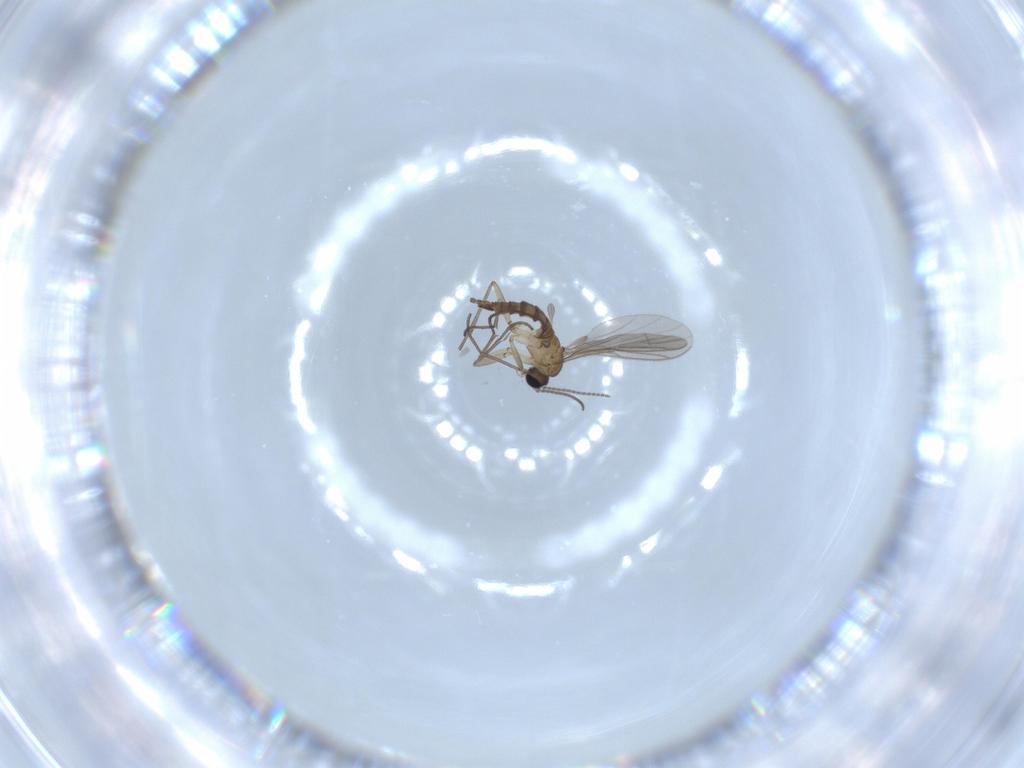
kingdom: Animalia
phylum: Arthropoda
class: Insecta
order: Diptera
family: Sciaridae
